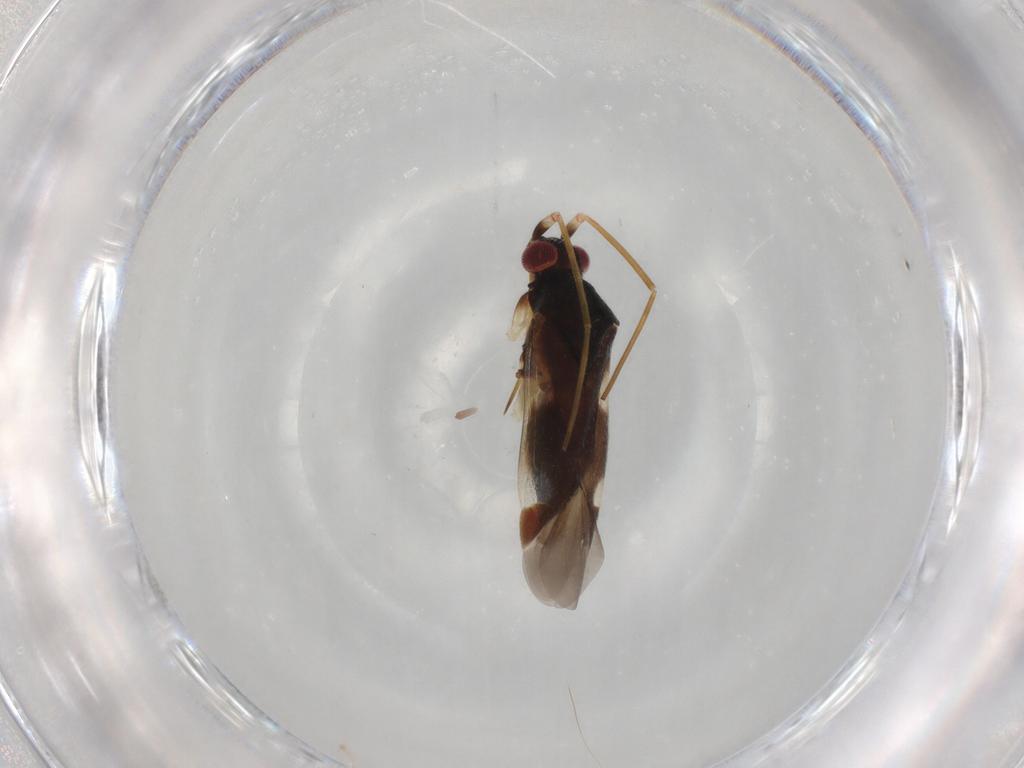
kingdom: Animalia
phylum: Arthropoda
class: Insecta
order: Hemiptera
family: Miridae
